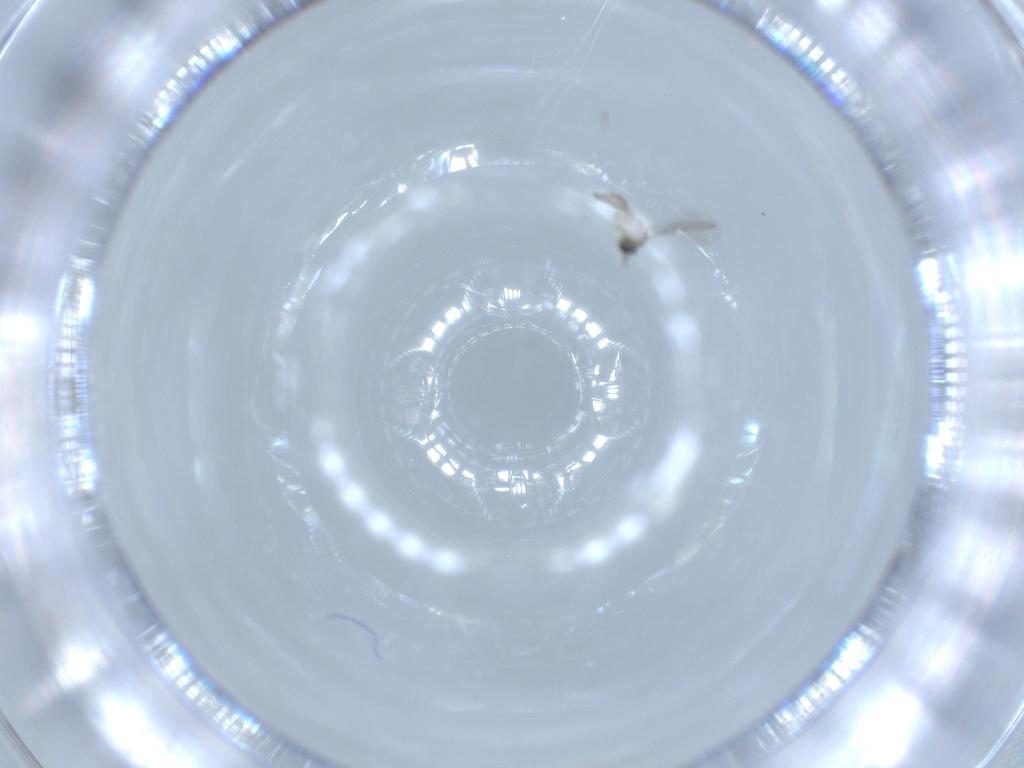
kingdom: Animalia
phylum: Arthropoda
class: Insecta
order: Diptera
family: Cecidomyiidae
